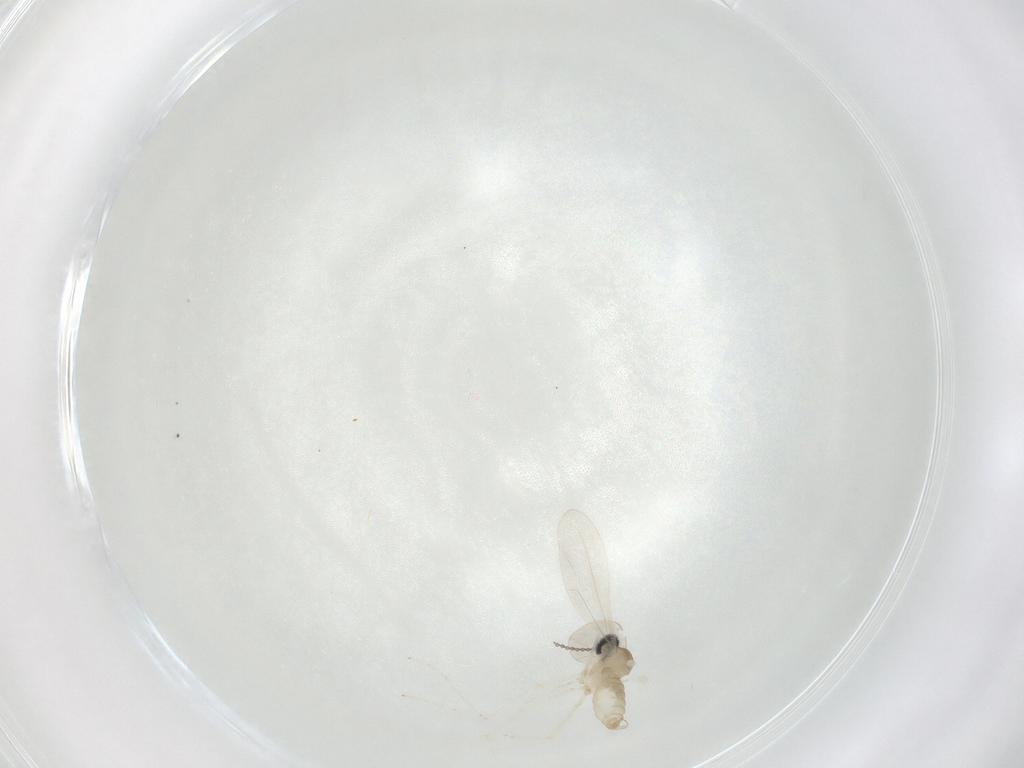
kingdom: Animalia
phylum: Arthropoda
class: Insecta
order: Diptera
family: Cecidomyiidae
